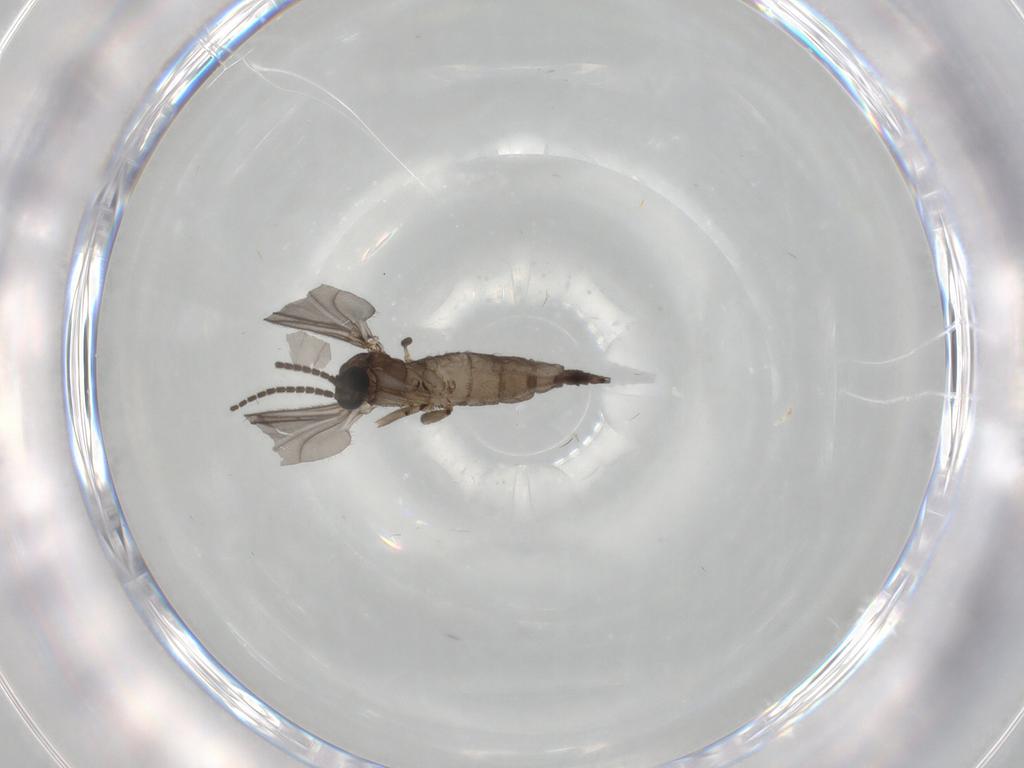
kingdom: Animalia
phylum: Arthropoda
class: Insecta
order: Diptera
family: Sciaridae
